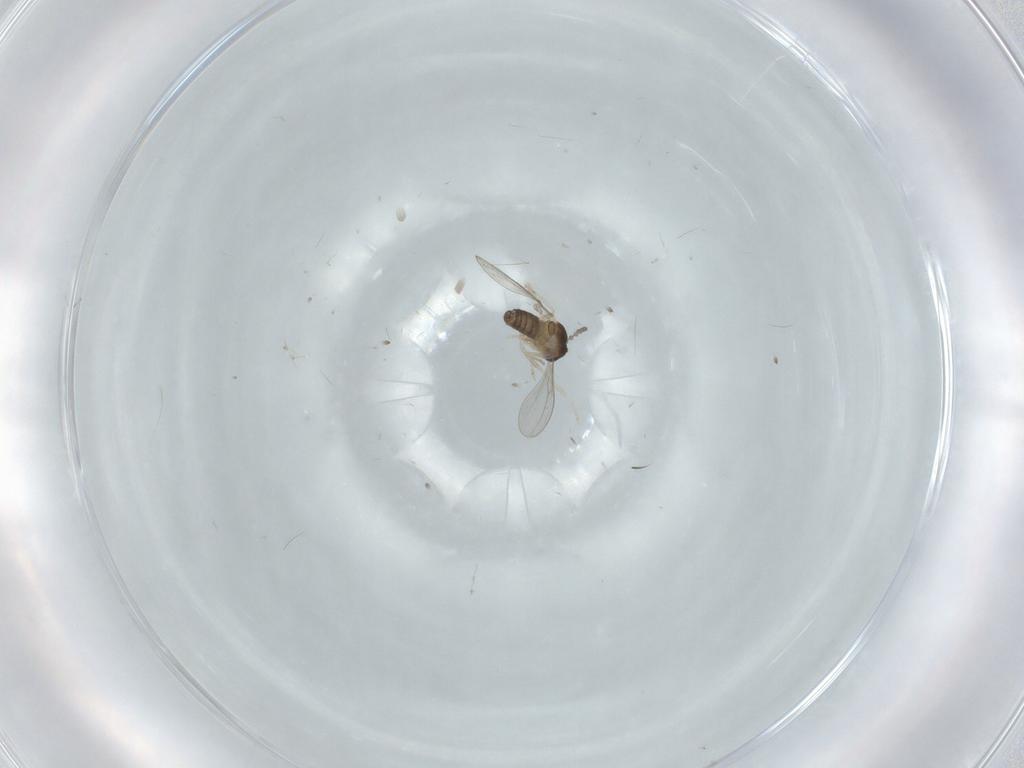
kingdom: Animalia
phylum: Arthropoda
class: Insecta
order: Diptera
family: Cecidomyiidae
